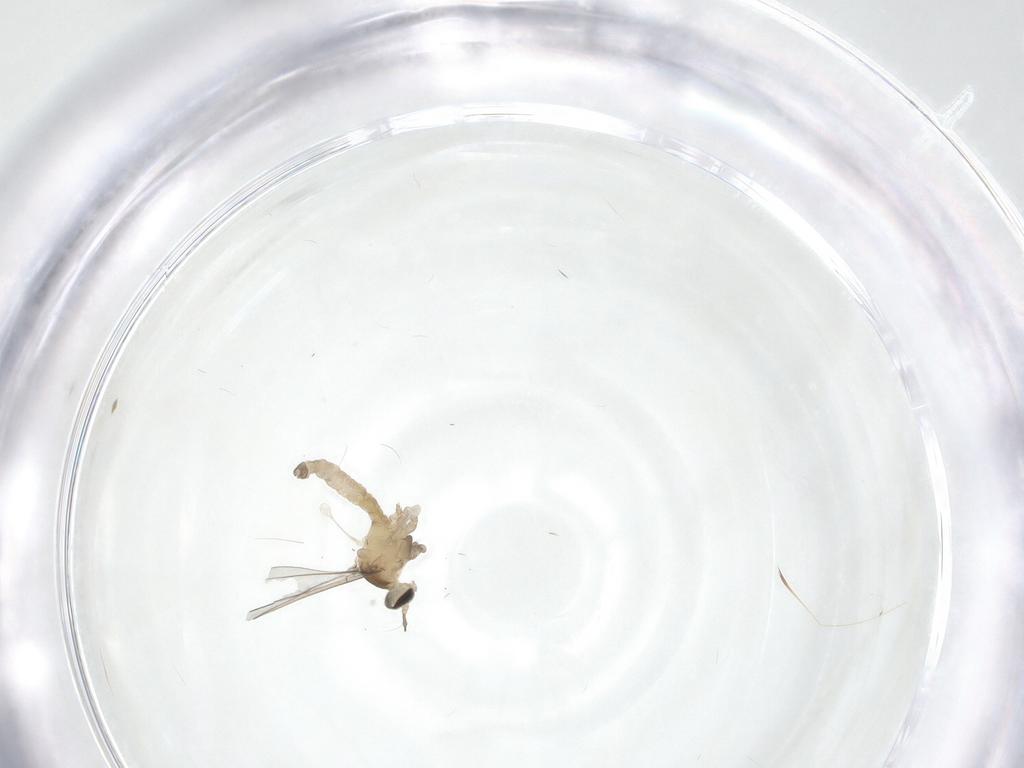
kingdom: Animalia
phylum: Arthropoda
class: Insecta
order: Diptera
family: Cecidomyiidae
